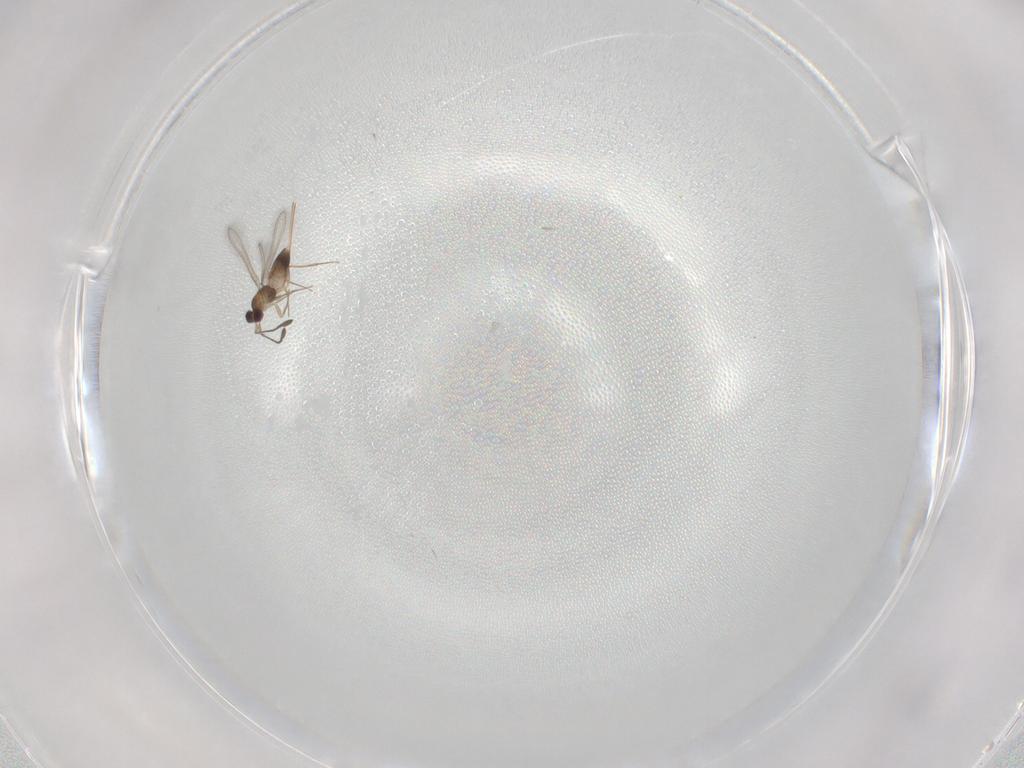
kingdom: Animalia
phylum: Arthropoda
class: Insecta
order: Hymenoptera
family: Mymaridae
